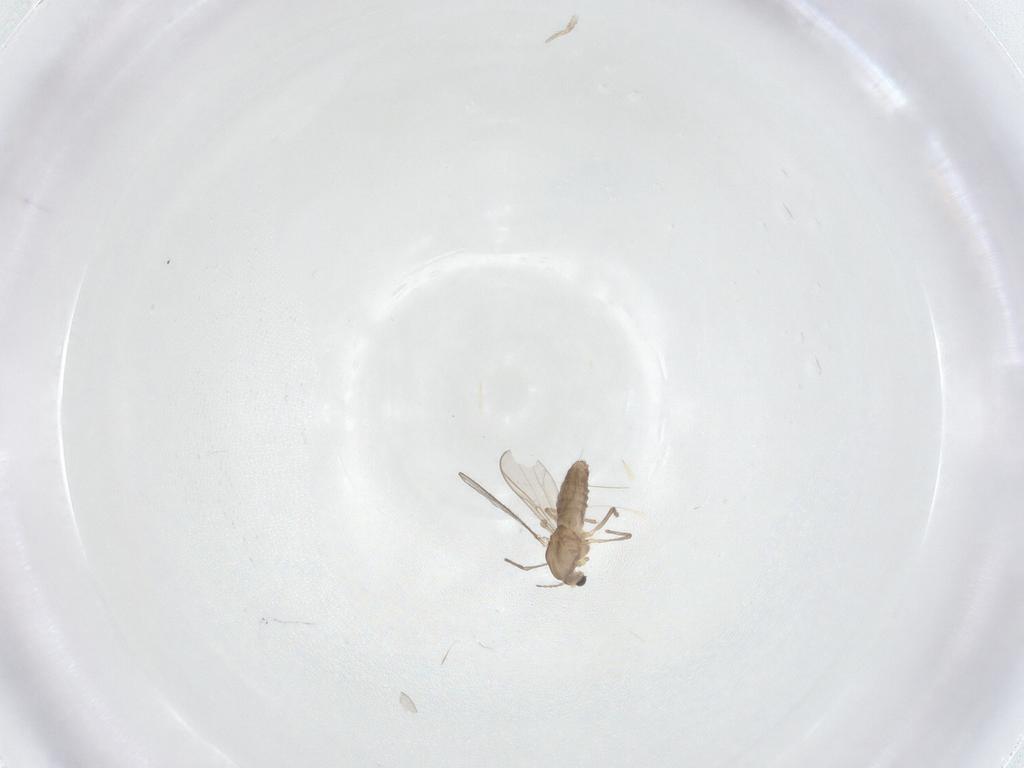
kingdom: Animalia
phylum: Arthropoda
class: Insecta
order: Diptera
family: Chironomidae
